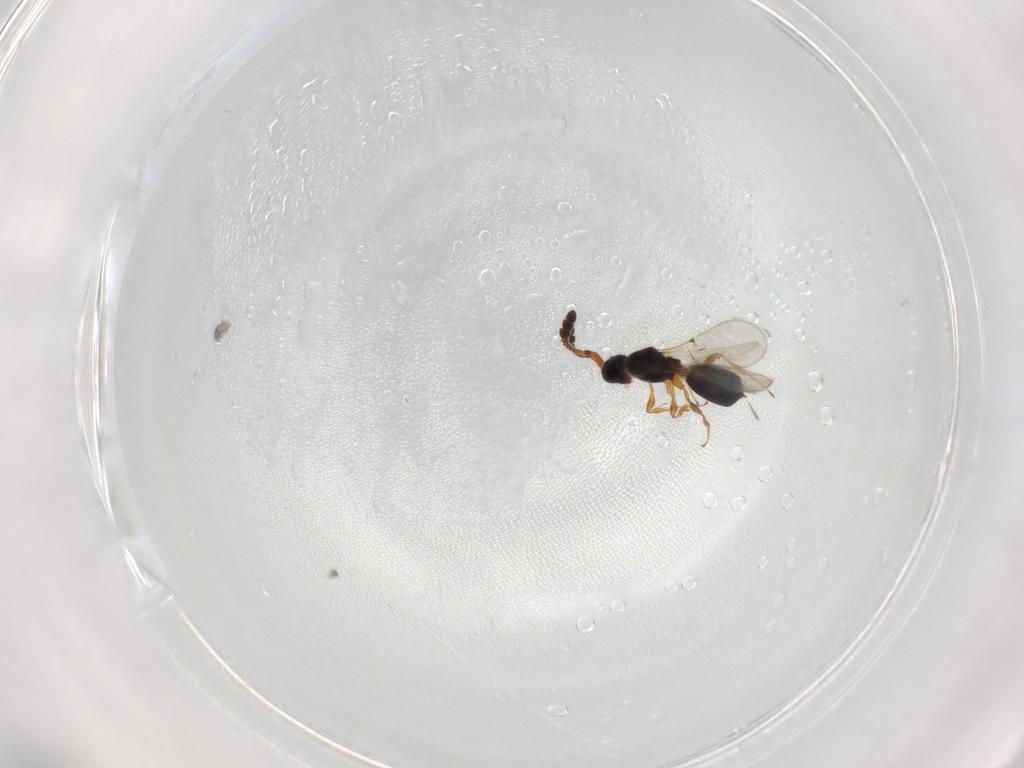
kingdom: Animalia
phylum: Arthropoda
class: Insecta
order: Hymenoptera
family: Diapriidae
